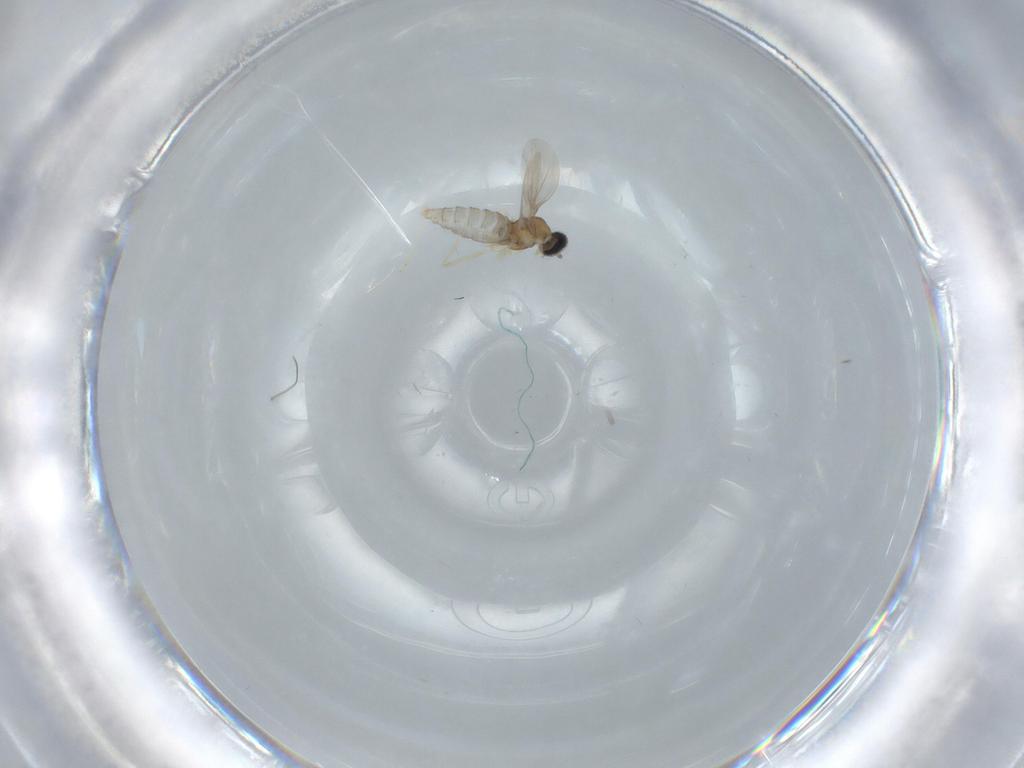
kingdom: Animalia
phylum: Arthropoda
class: Insecta
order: Diptera
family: Cecidomyiidae
